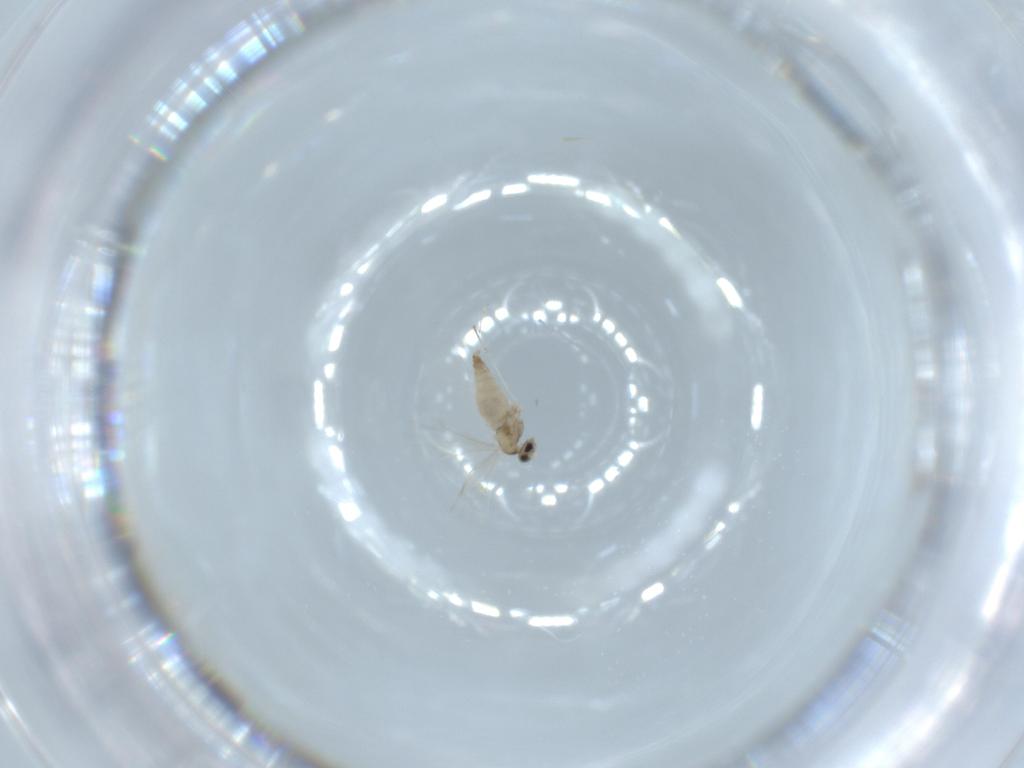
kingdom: Animalia
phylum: Arthropoda
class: Insecta
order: Diptera
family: Cecidomyiidae
